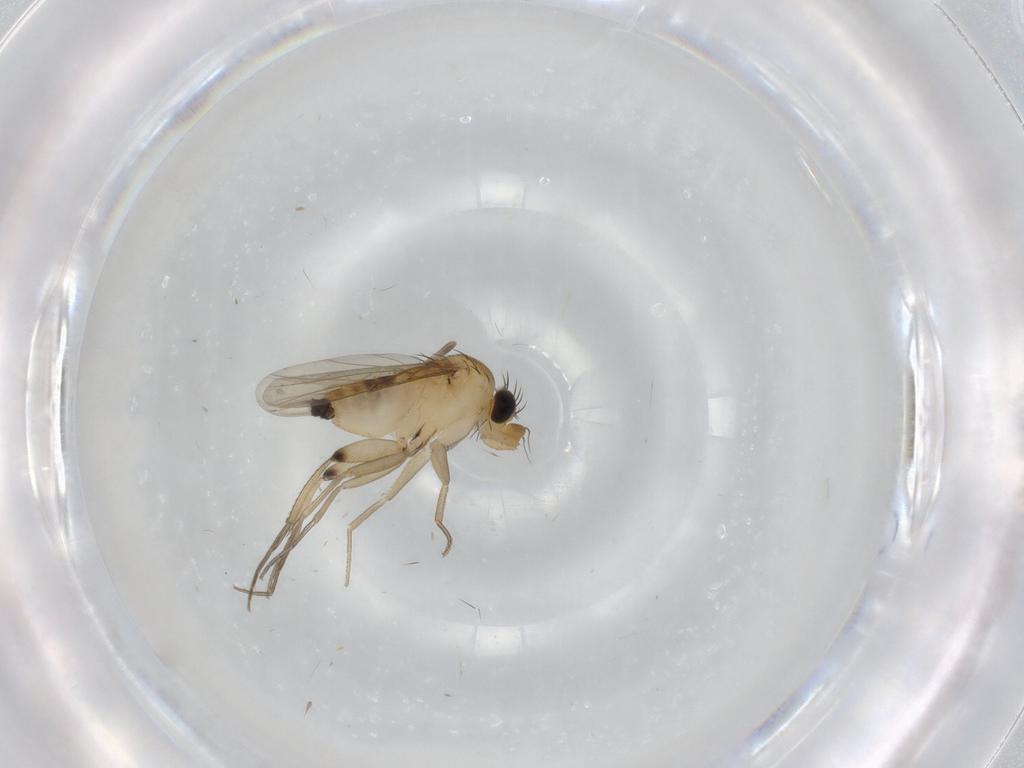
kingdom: Animalia
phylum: Arthropoda
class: Insecta
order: Diptera
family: Phoridae
